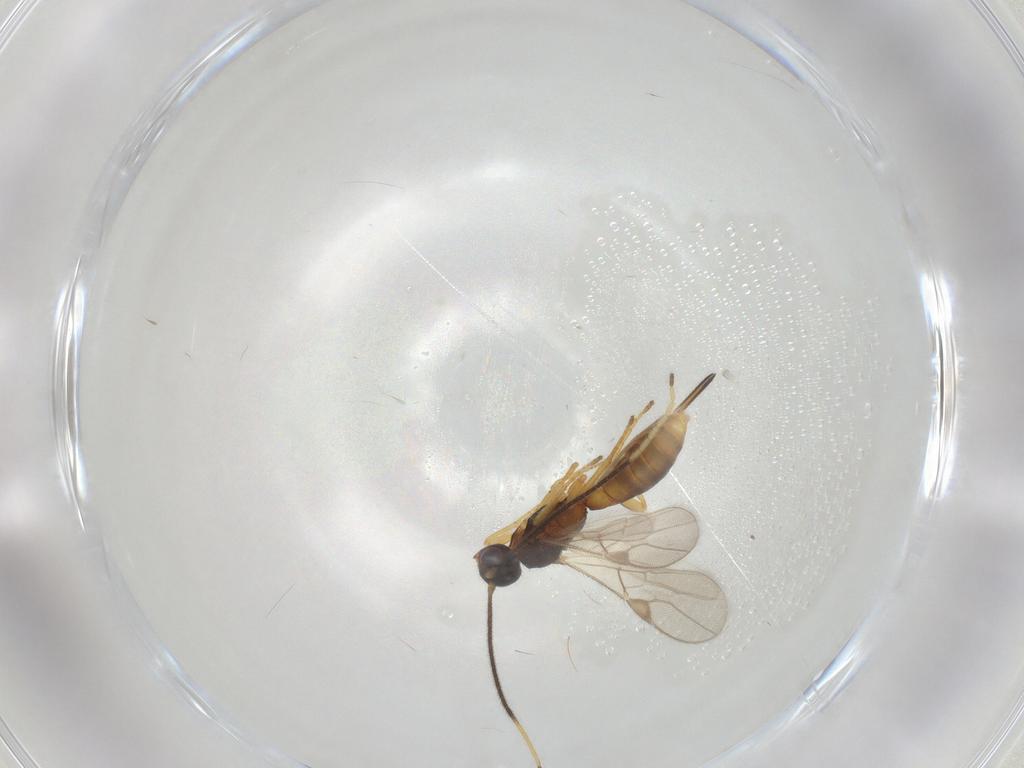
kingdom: Animalia
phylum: Arthropoda
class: Insecta
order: Hymenoptera
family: Braconidae
